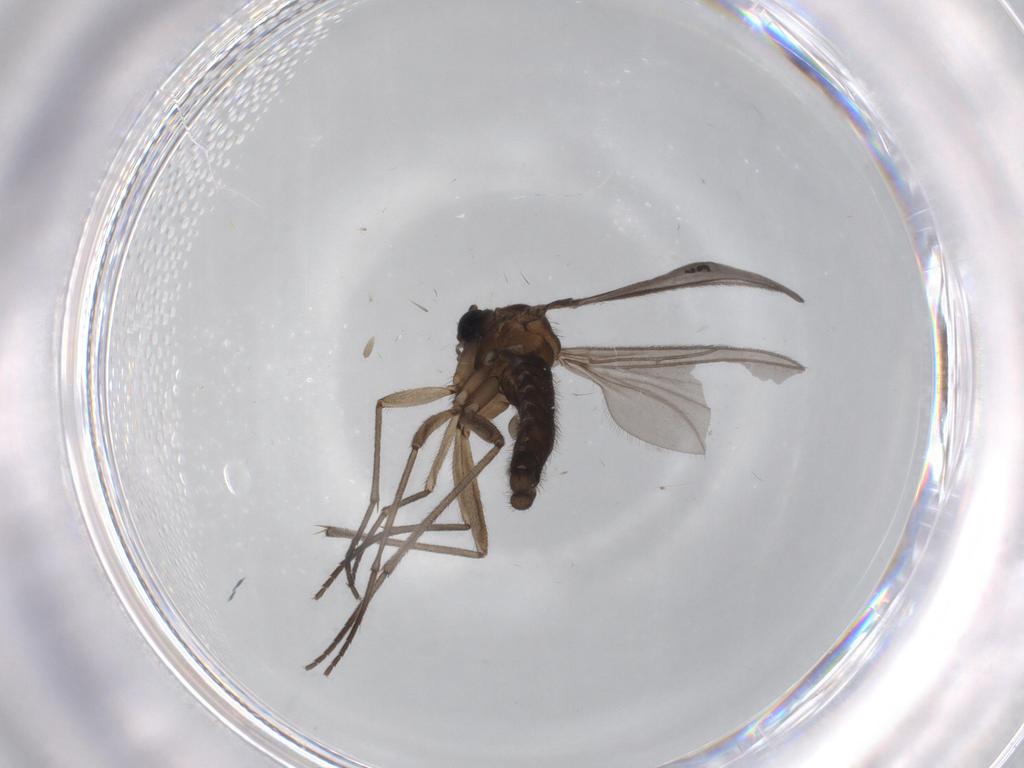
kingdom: Animalia
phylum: Arthropoda
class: Insecta
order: Diptera
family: Sciaridae
